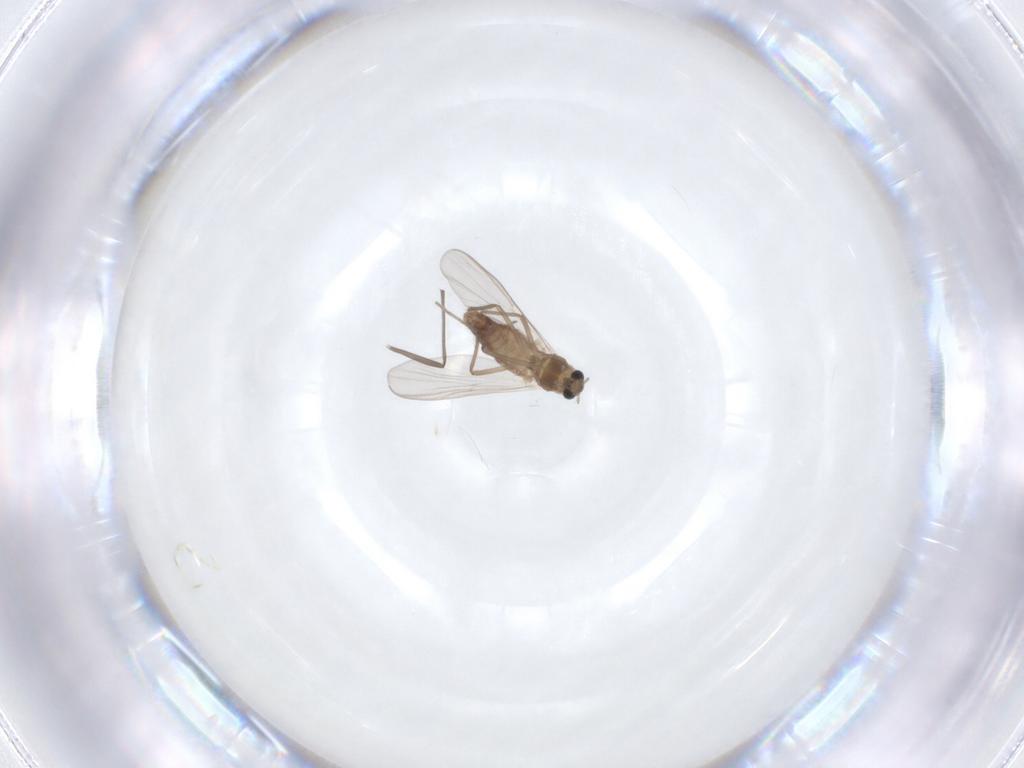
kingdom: Animalia
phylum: Arthropoda
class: Insecta
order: Diptera
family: Chironomidae
